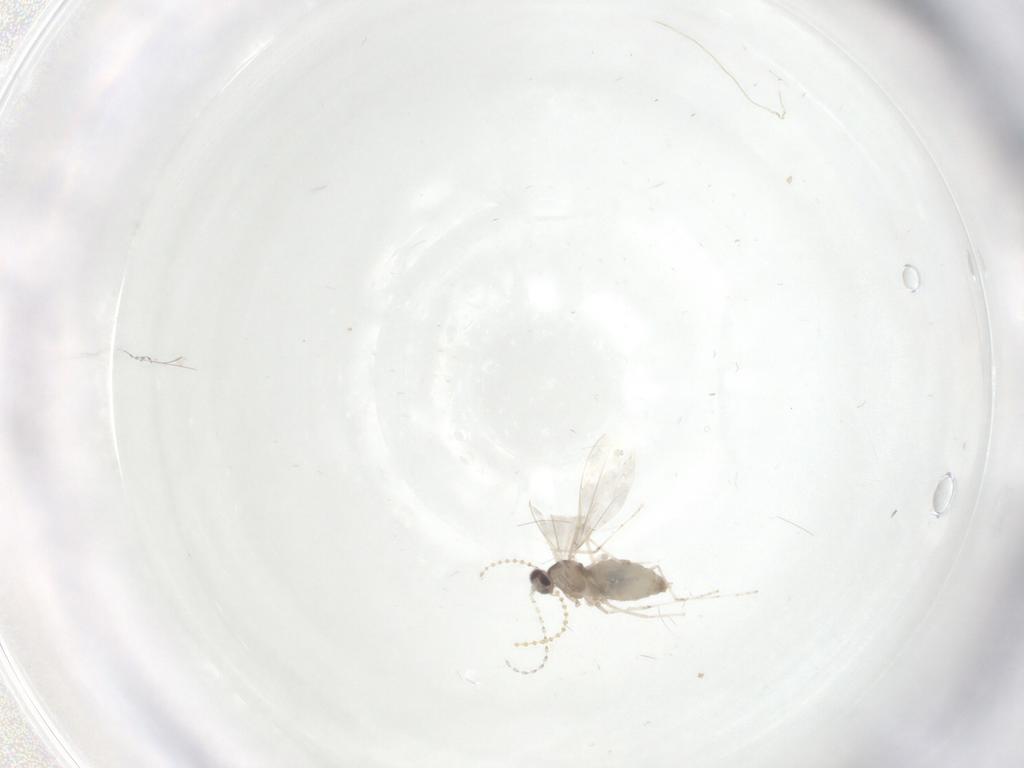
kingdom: Animalia
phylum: Arthropoda
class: Insecta
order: Diptera
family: Cecidomyiidae
